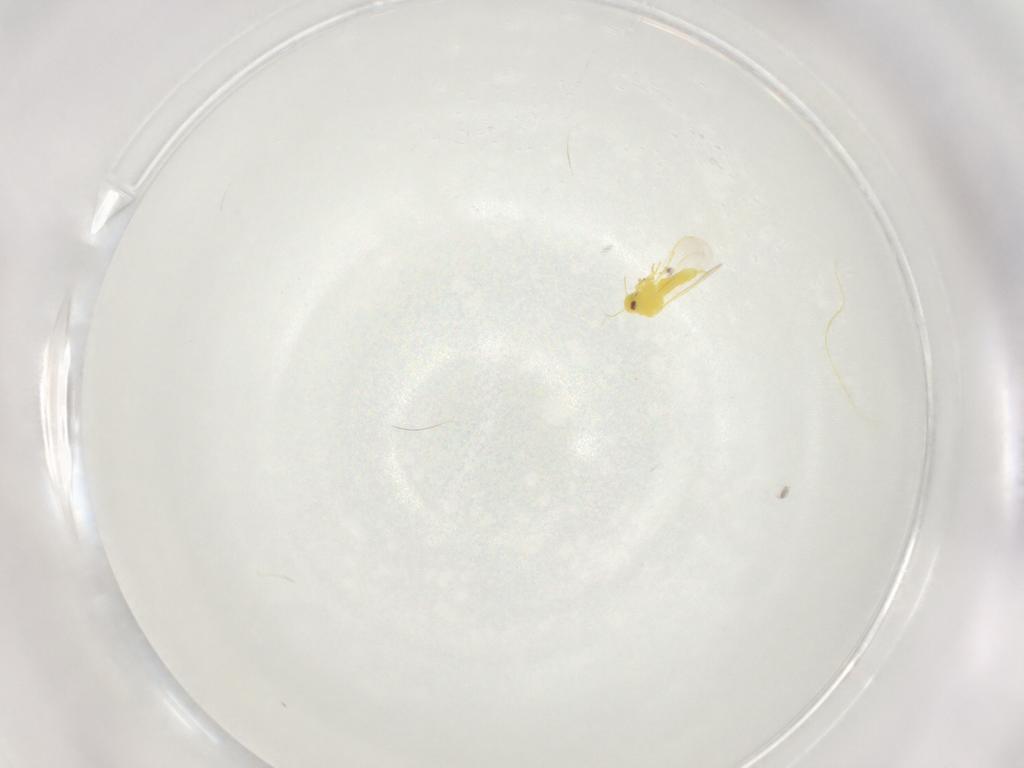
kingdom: Animalia
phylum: Arthropoda
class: Insecta
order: Hemiptera
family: Aleyrodidae
